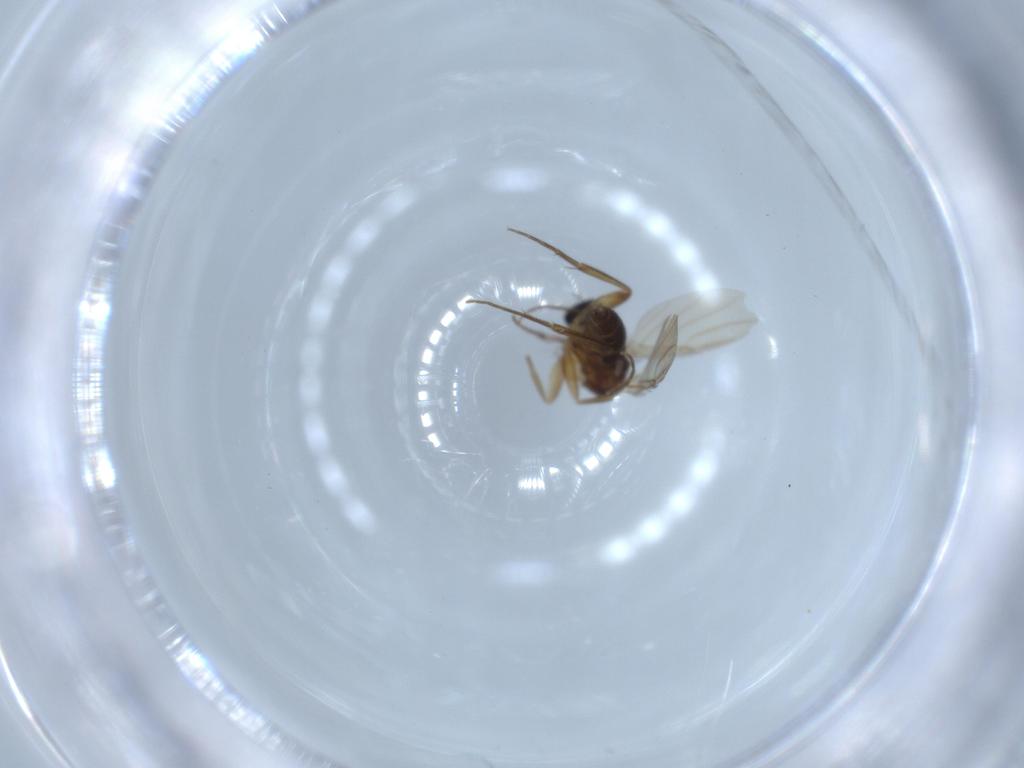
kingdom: Animalia
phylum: Arthropoda
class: Insecta
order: Diptera
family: Phoridae
